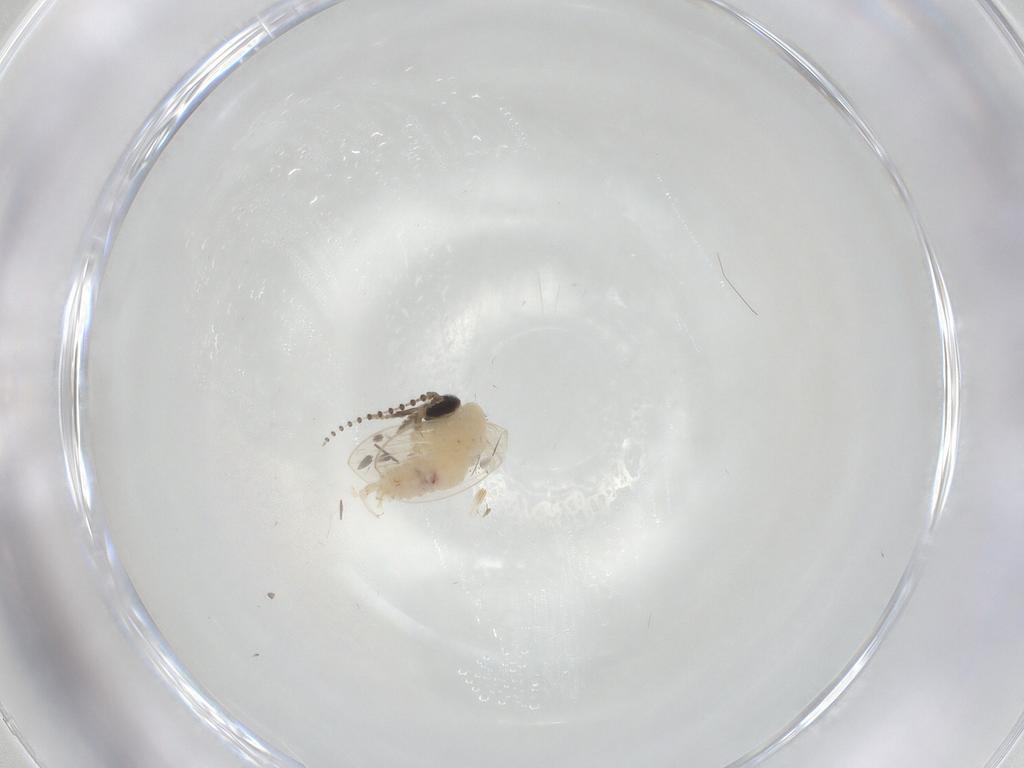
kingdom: Animalia
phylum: Arthropoda
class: Insecta
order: Diptera
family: Psychodidae
